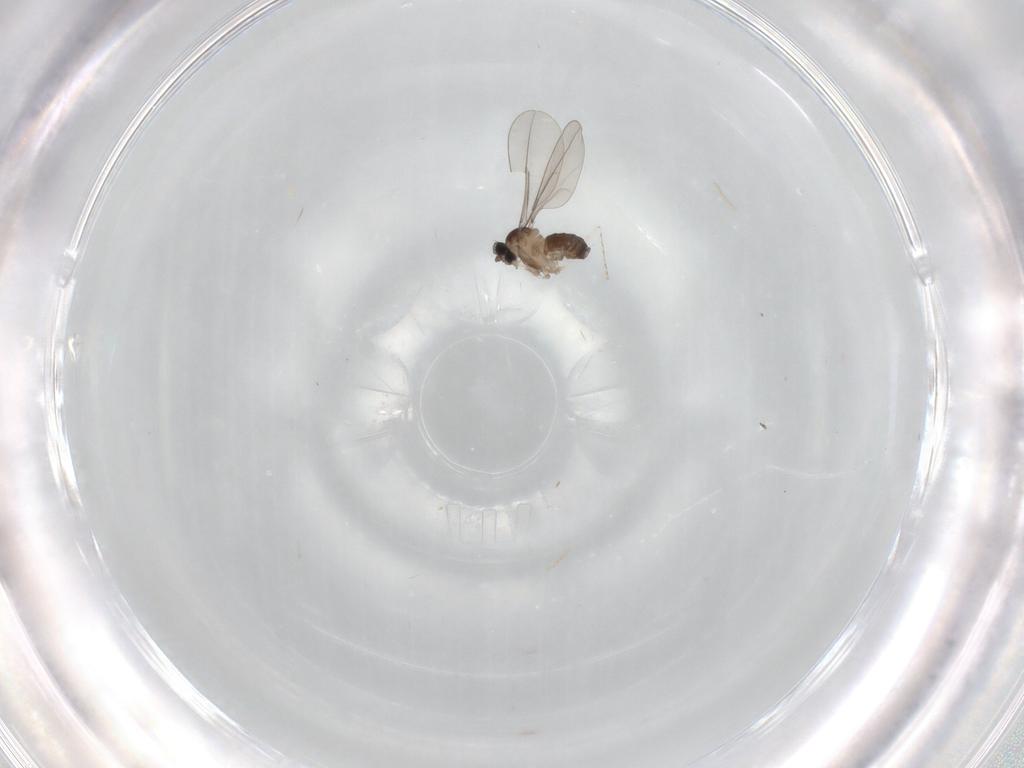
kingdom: Animalia
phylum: Arthropoda
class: Insecta
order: Diptera
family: Cecidomyiidae
